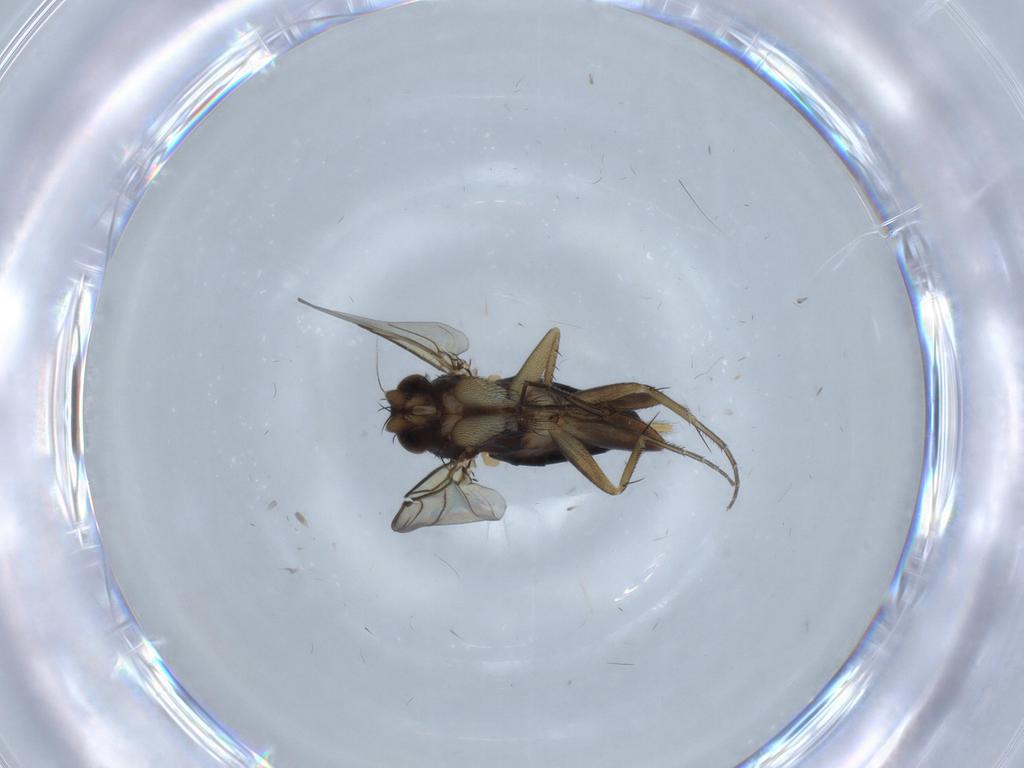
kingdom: Animalia
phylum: Arthropoda
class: Insecta
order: Diptera
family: Phoridae
